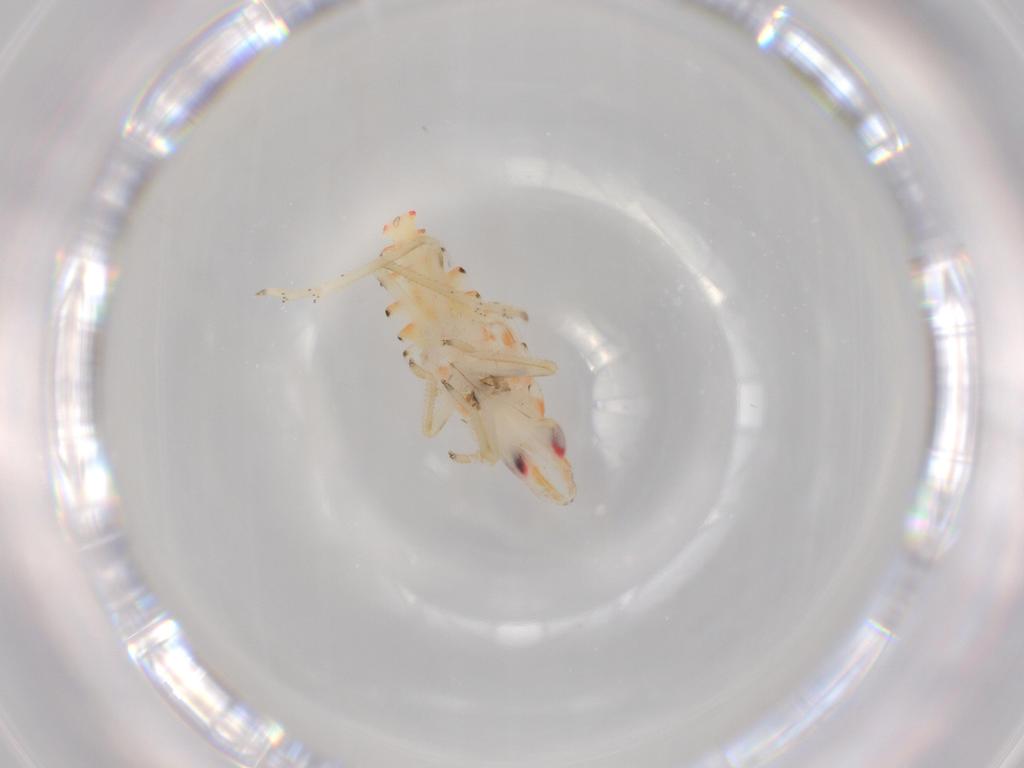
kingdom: Animalia
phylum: Arthropoda
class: Insecta
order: Hemiptera
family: Tropiduchidae
